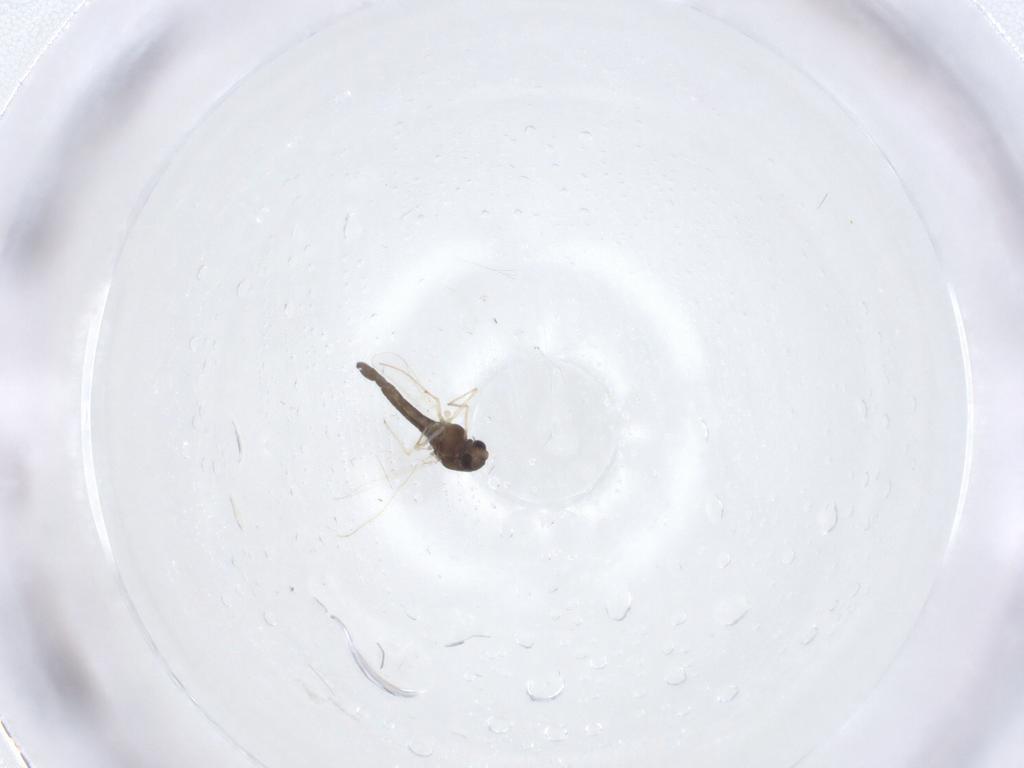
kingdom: Animalia
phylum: Arthropoda
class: Insecta
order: Diptera
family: Chironomidae
